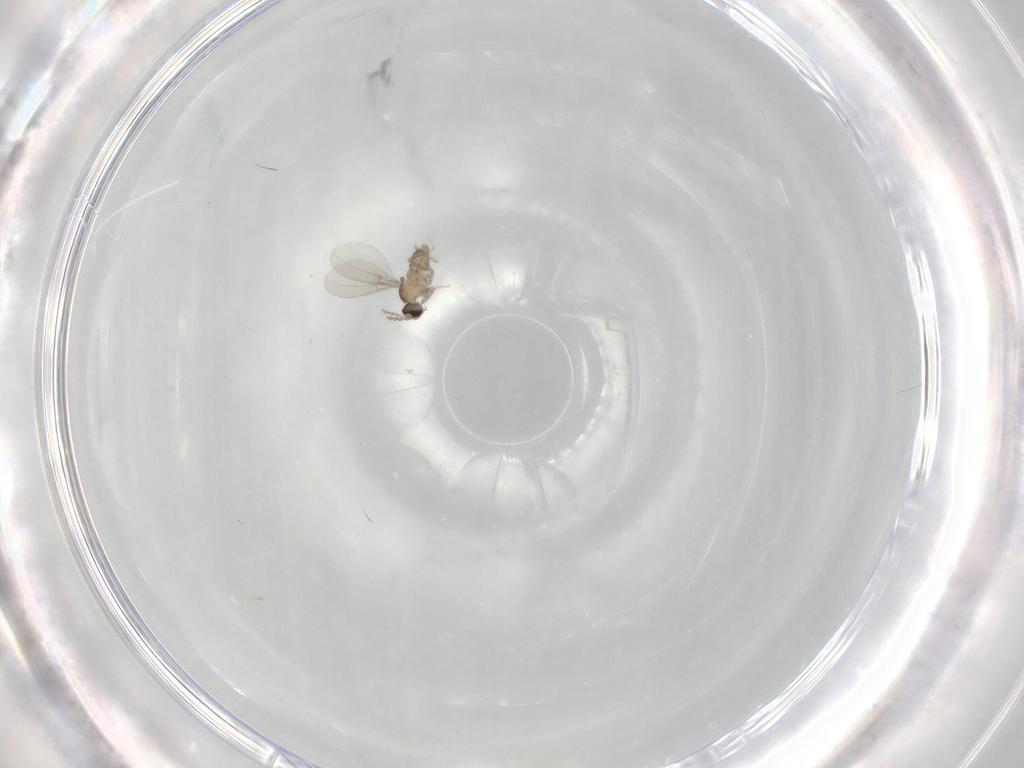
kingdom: Animalia
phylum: Arthropoda
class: Insecta
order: Diptera
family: Cecidomyiidae
